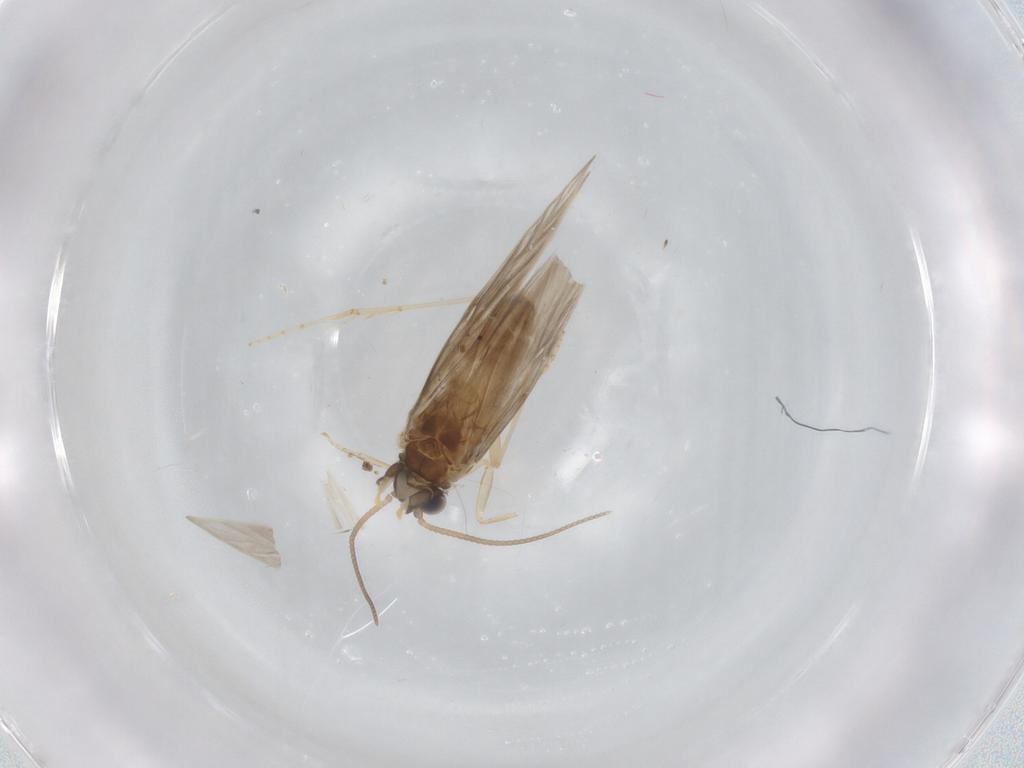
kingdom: Animalia
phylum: Arthropoda
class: Insecta
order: Trichoptera
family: Hydroptilidae
